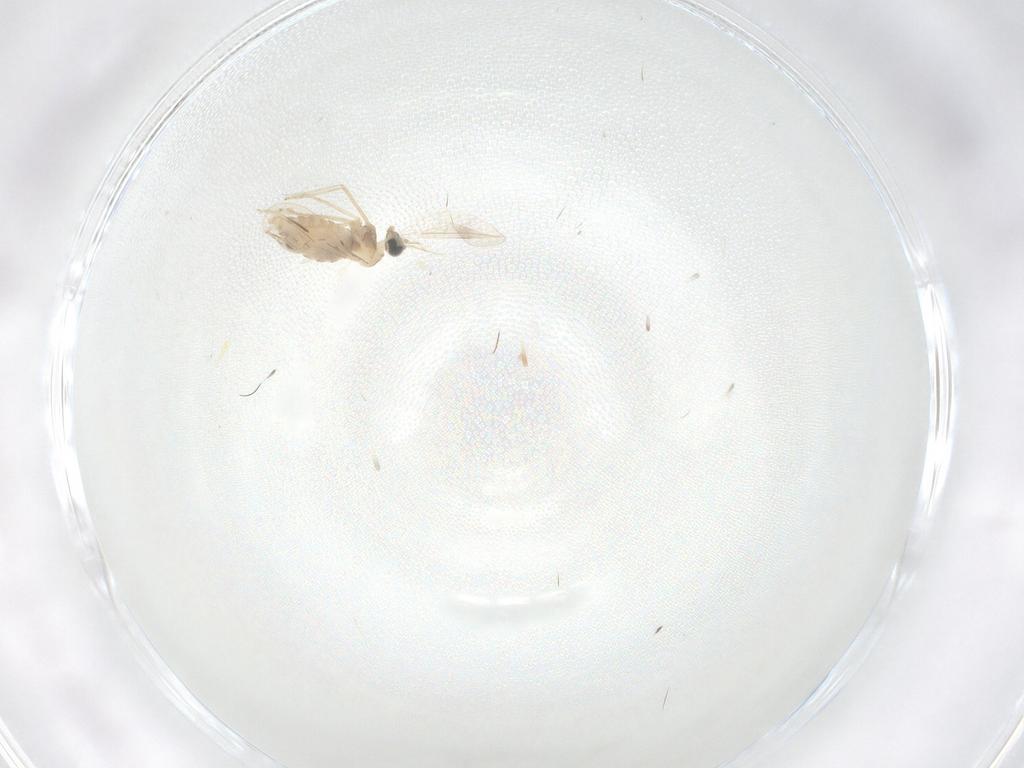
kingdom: Animalia
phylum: Arthropoda
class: Insecta
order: Diptera
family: Cecidomyiidae
